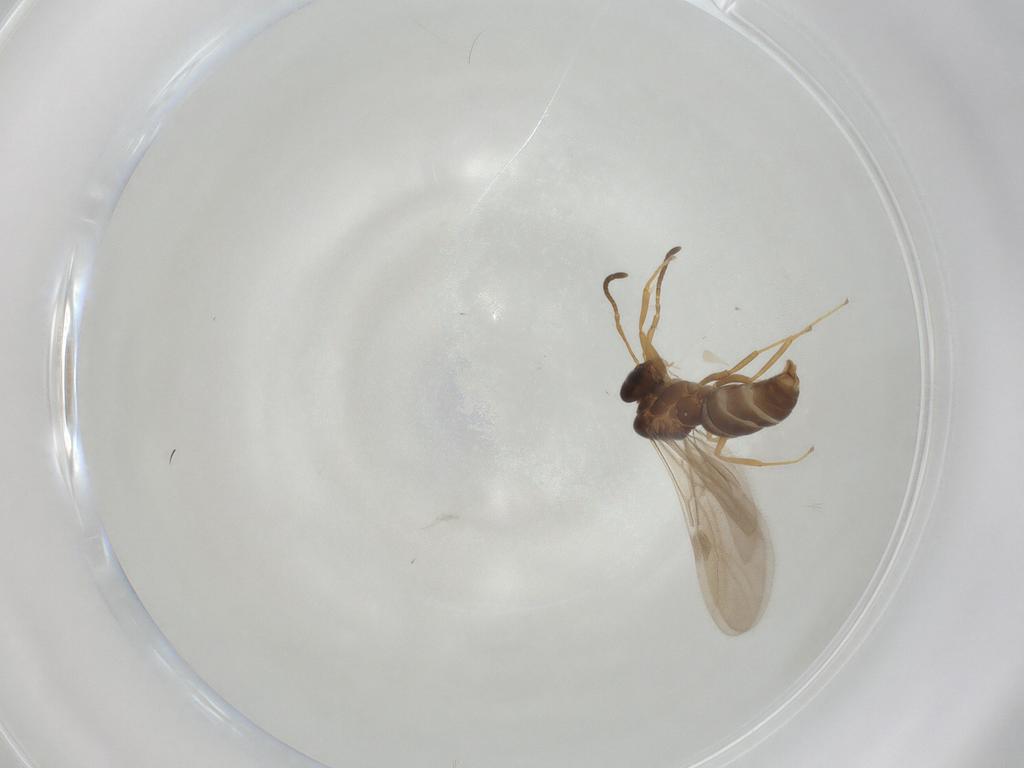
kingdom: Animalia
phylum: Arthropoda
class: Insecta
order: Hymenoptera
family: Formicidae
